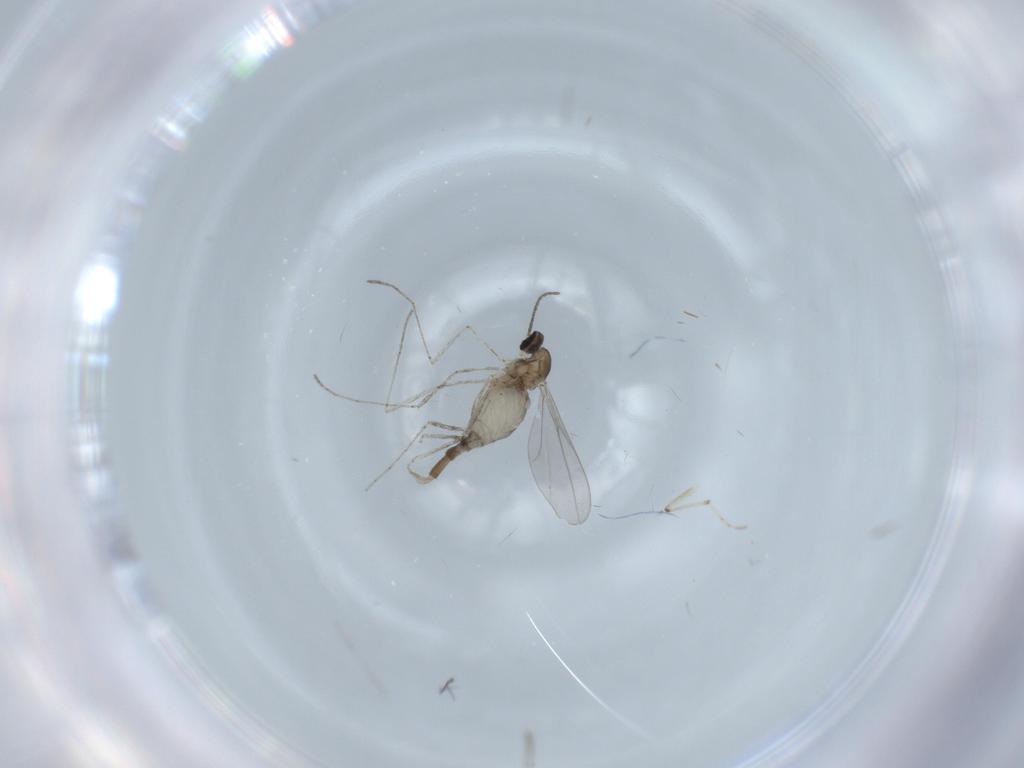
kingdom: Animalia
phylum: Arthropoda
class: Insecta
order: Diptera
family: Cecidomyiidae
